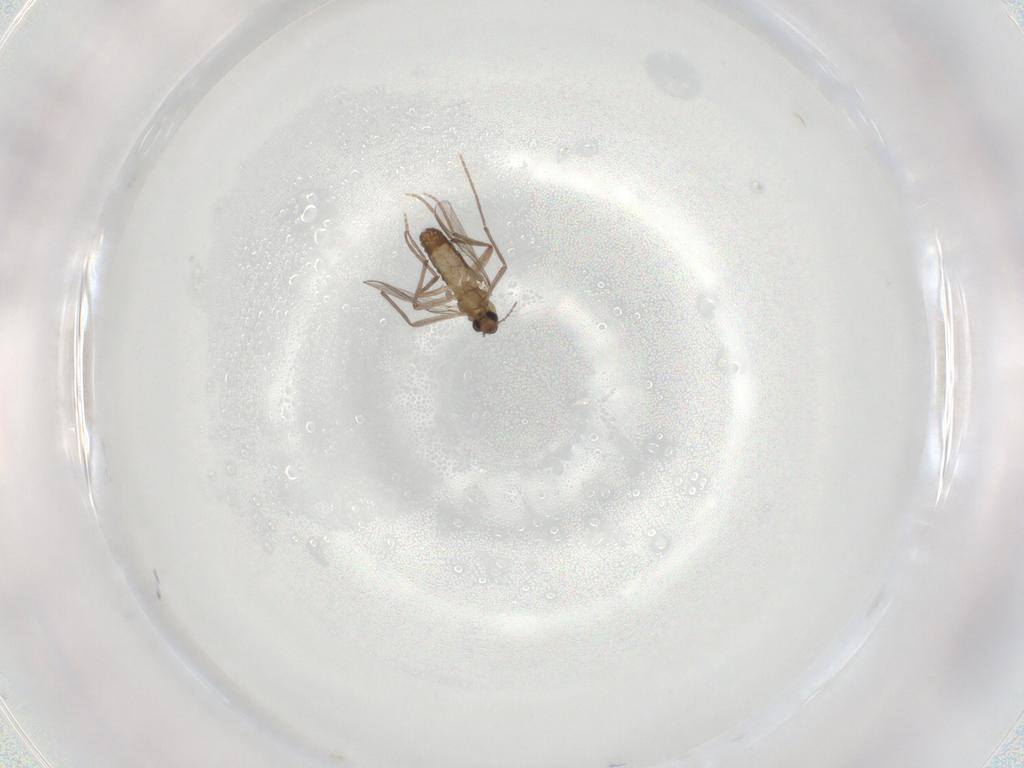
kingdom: Animalia
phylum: Arthropoda
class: Insecta
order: Diptera
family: Chironomidae
